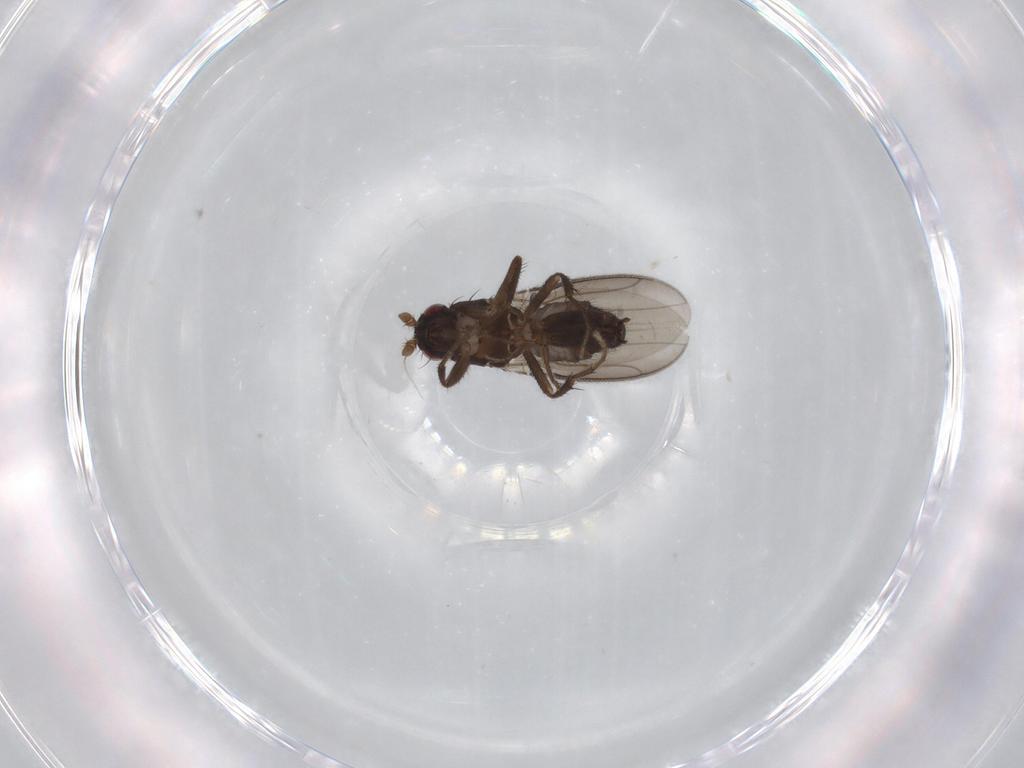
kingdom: Animalia
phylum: Arthropoda
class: Insecta
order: Diptera
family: Sphaeroceridae
